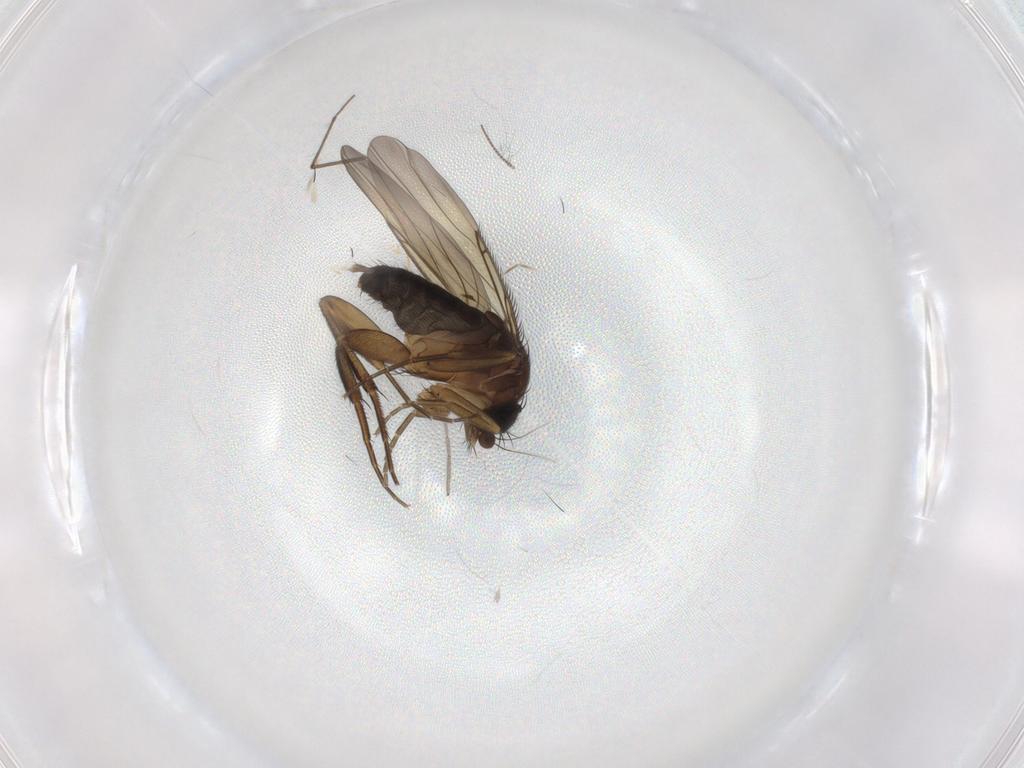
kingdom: Animalia
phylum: Arthropoda
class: Insecta
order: Diptera
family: Phoridae
